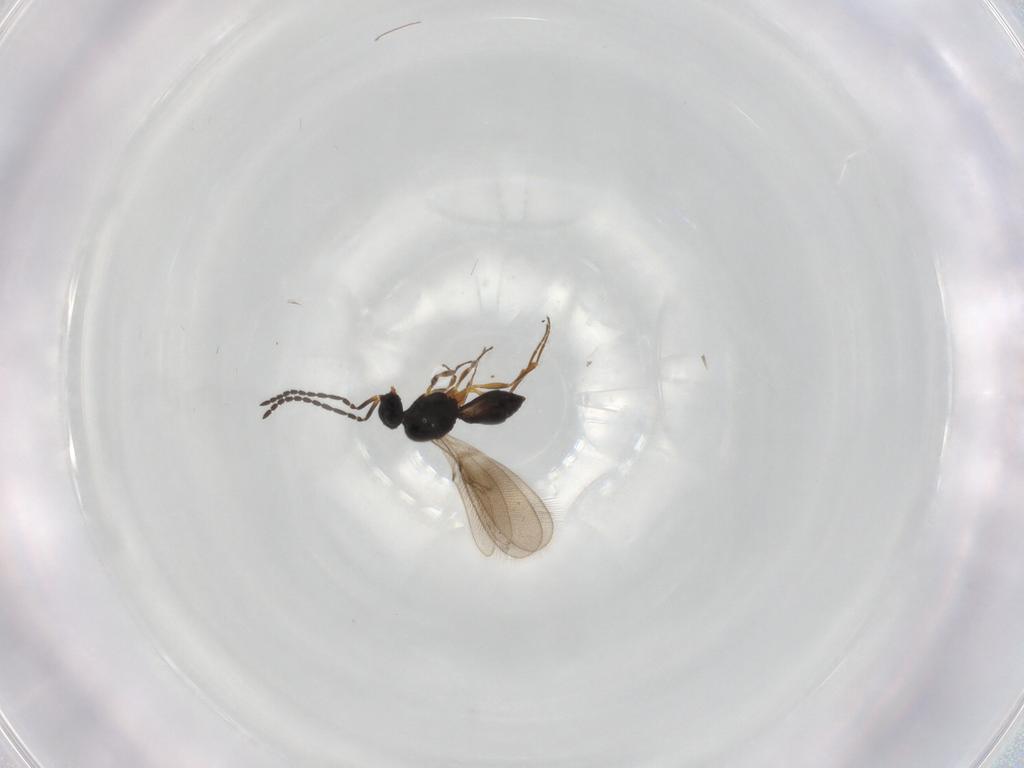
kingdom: Animalia
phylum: Arthropoda
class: Insecta
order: Hymenoptera
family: Scelionidae
